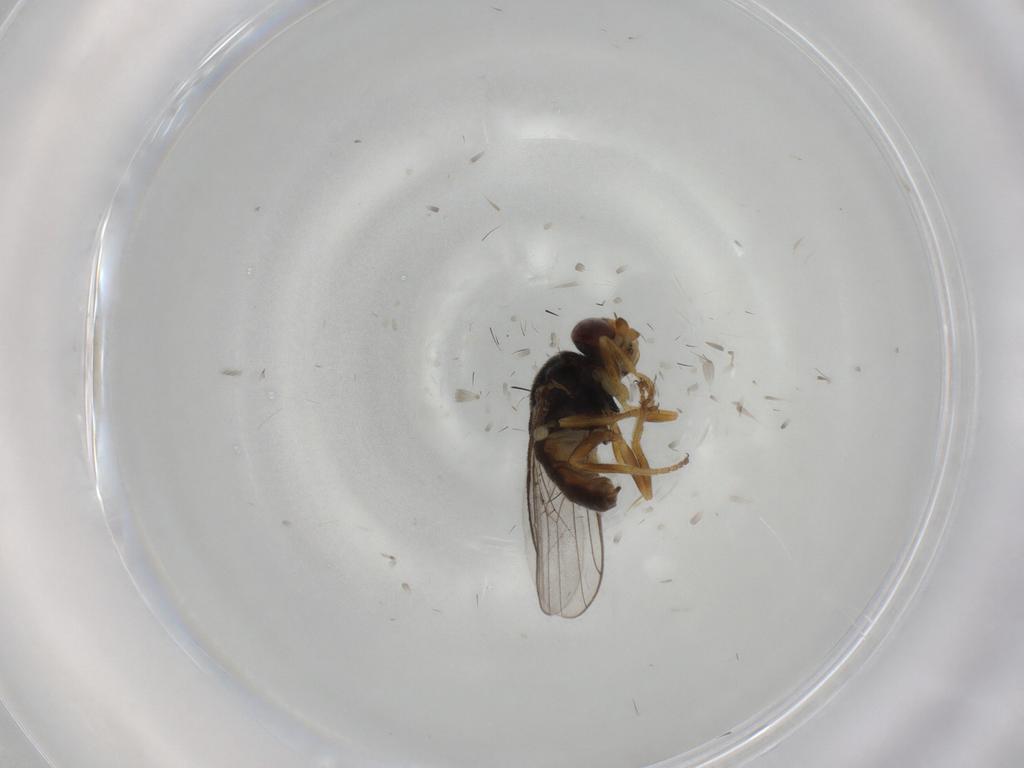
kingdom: Animalia
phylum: Arthropoda
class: Insecta
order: Diptera
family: Chloropidae
